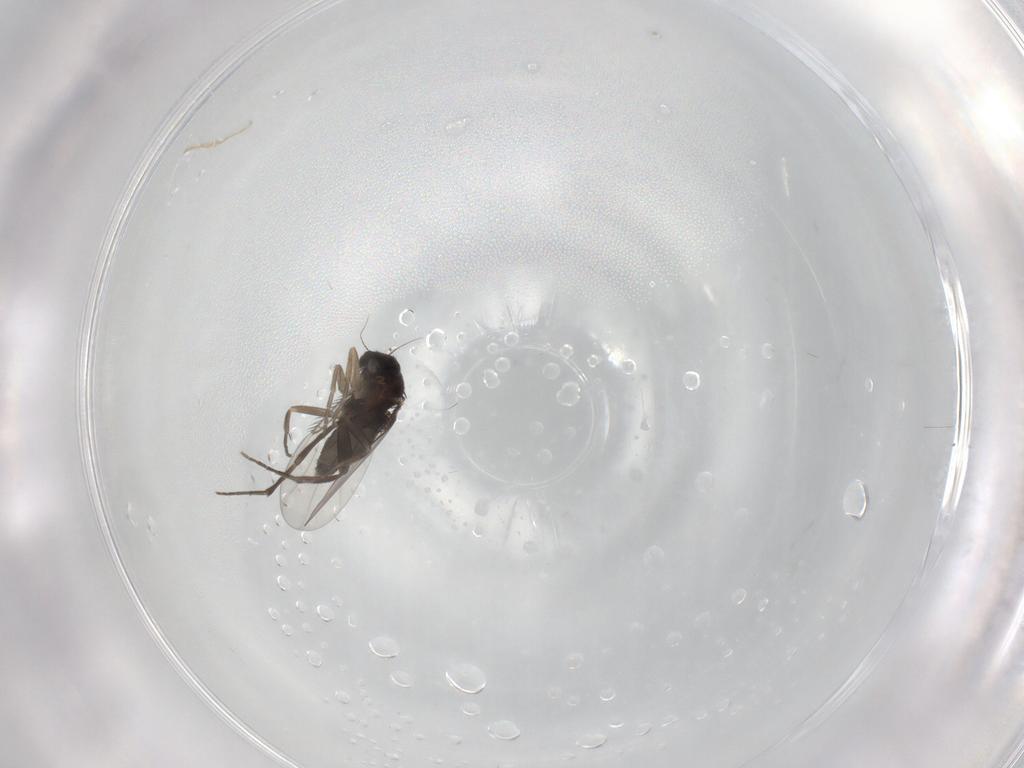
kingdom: Animalia
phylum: Arthropoda
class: Insecta
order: Diptera
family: Phoridae
